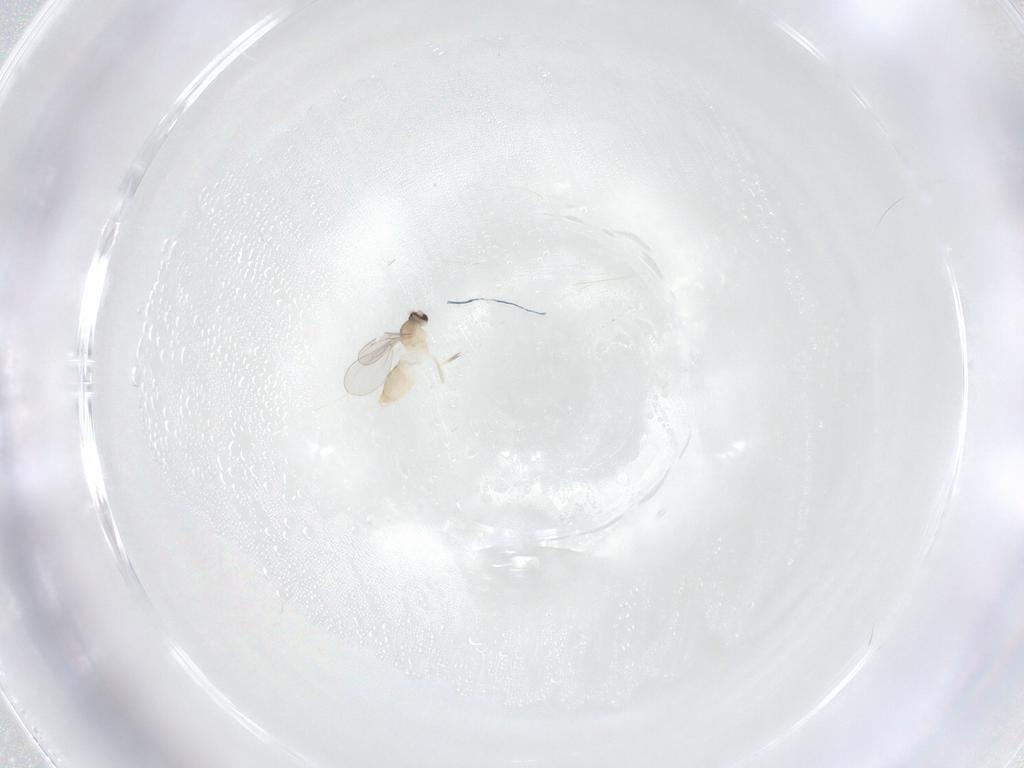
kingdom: Animalia
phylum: Arthropoda
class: Insecta
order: Diptera
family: Cecidomyiidae
